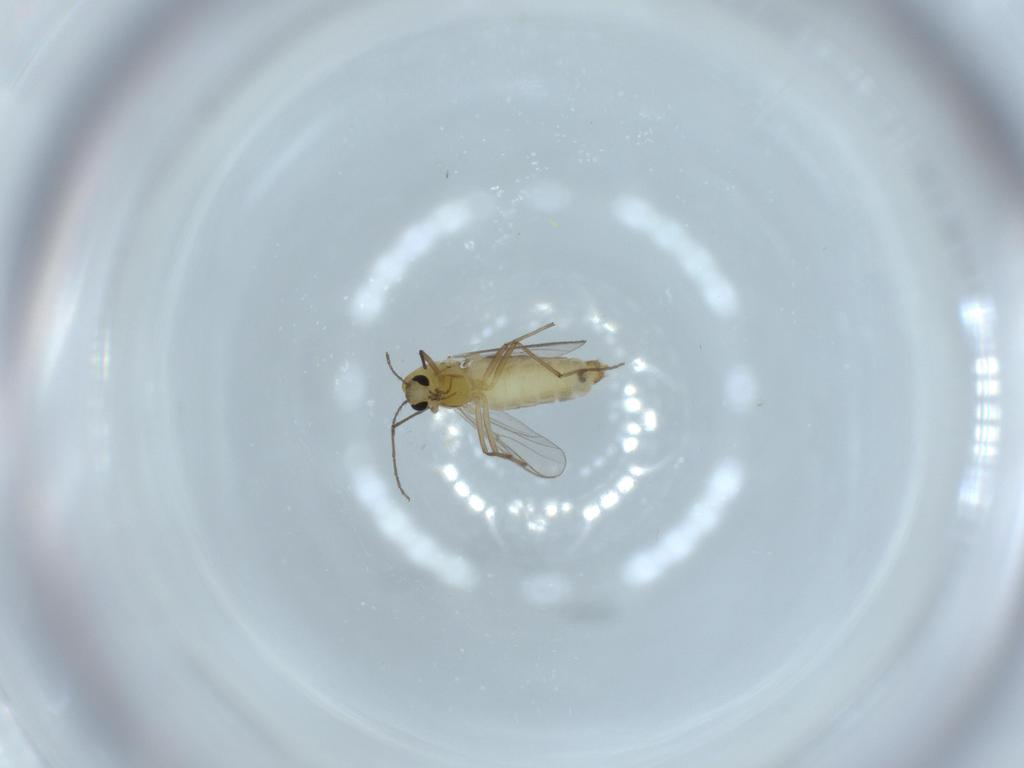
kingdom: Animalia
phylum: Arthropoda
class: Insecta
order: Diptera
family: Chironomidae
